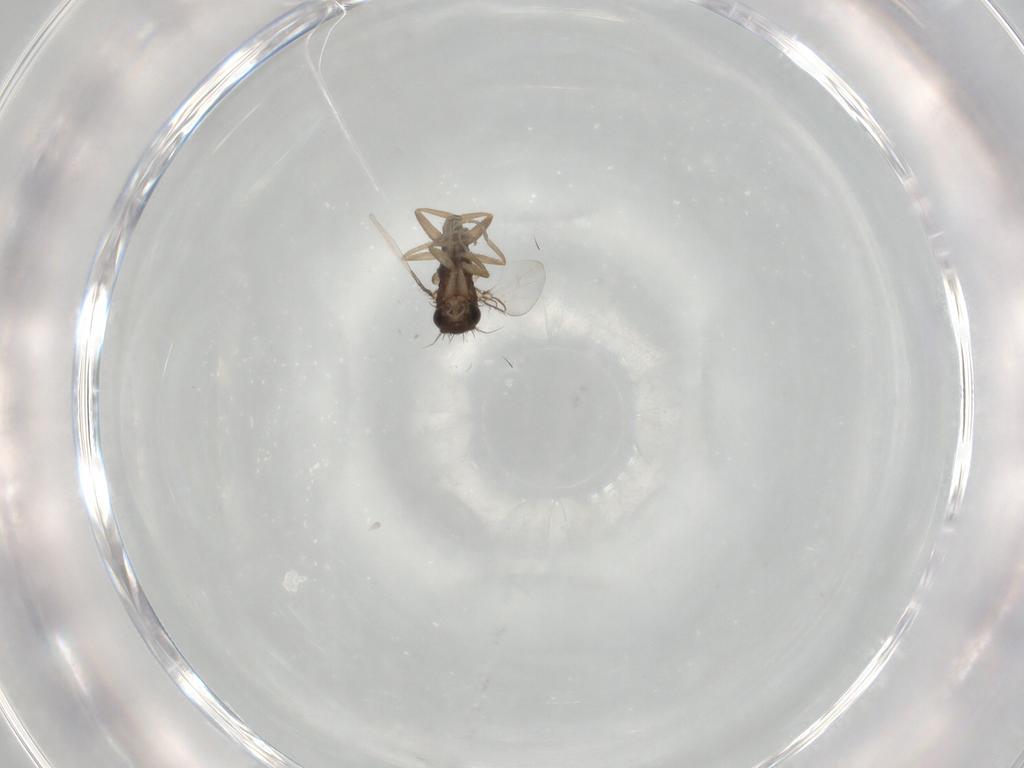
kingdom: Animalia
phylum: Arthropoda
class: Insecta
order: Diptera
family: Phoridae
